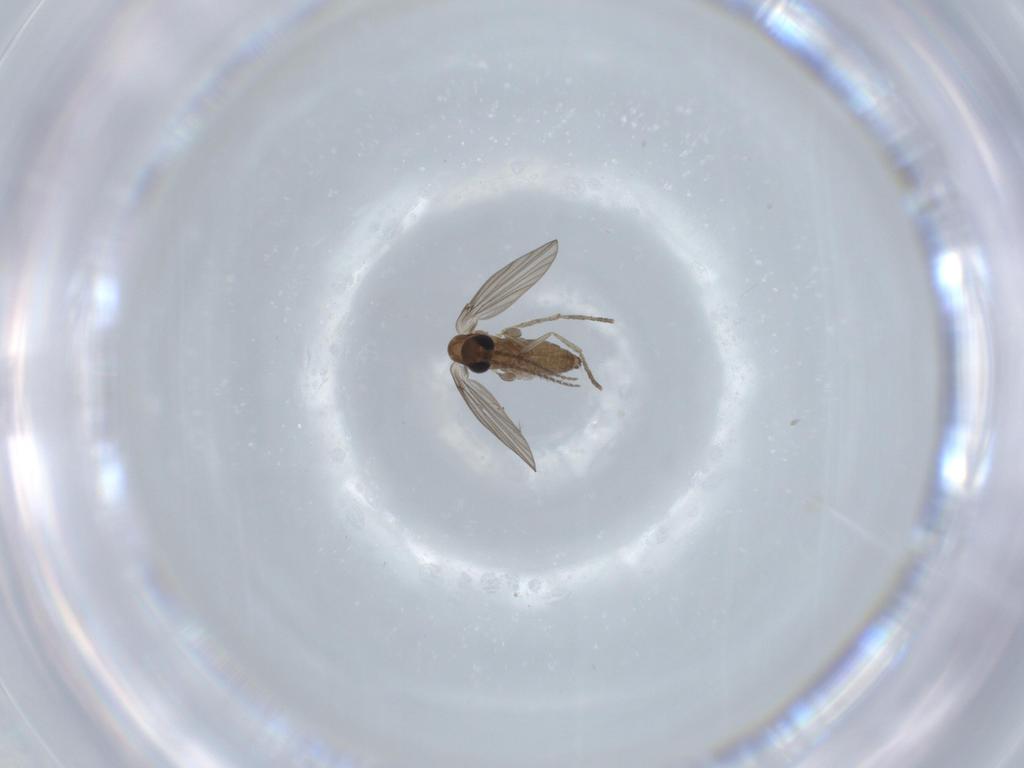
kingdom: Animalia
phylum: Arthropoda
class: Insecta
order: Diptera
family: Psychodidae
